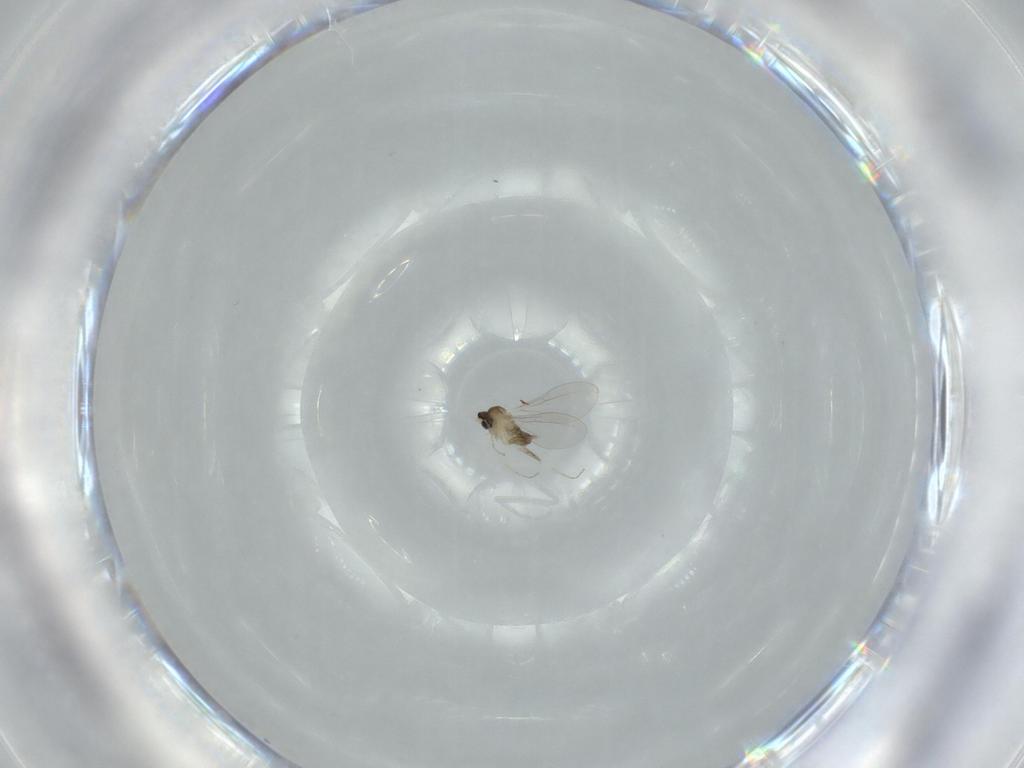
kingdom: Animalia
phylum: Arthropoda
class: Insecta
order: Diptera
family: Cecidomyiidae
